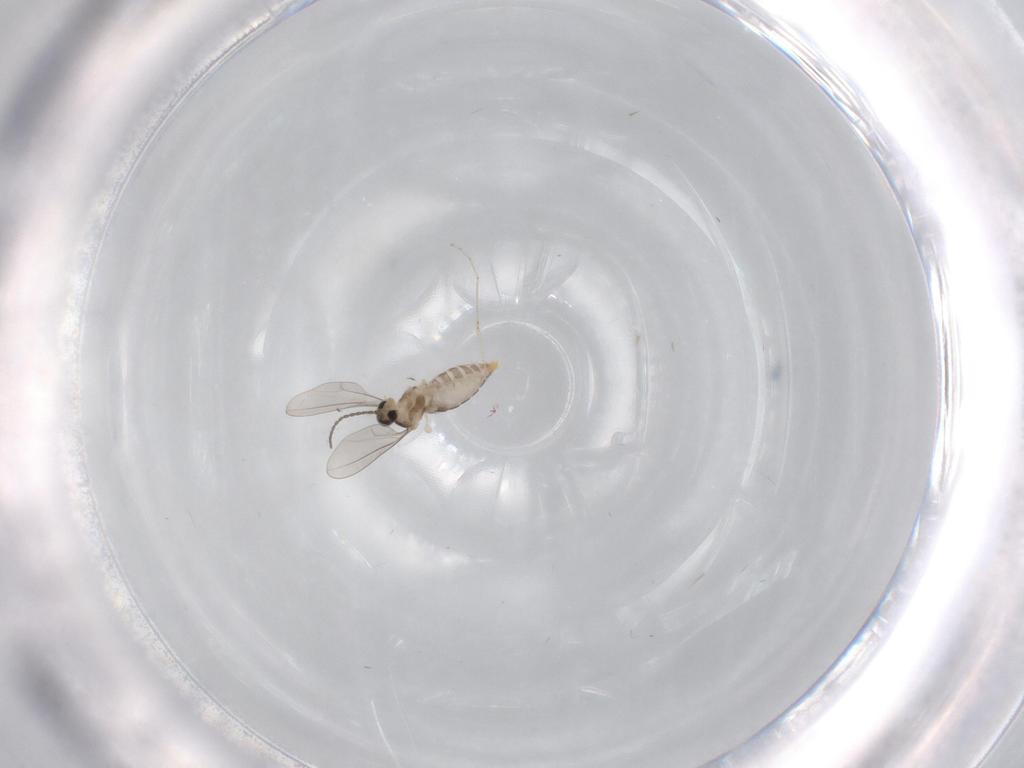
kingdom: Animalia
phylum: Arthropoda
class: Insecta
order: Diptera
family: Cecidomyiidae
